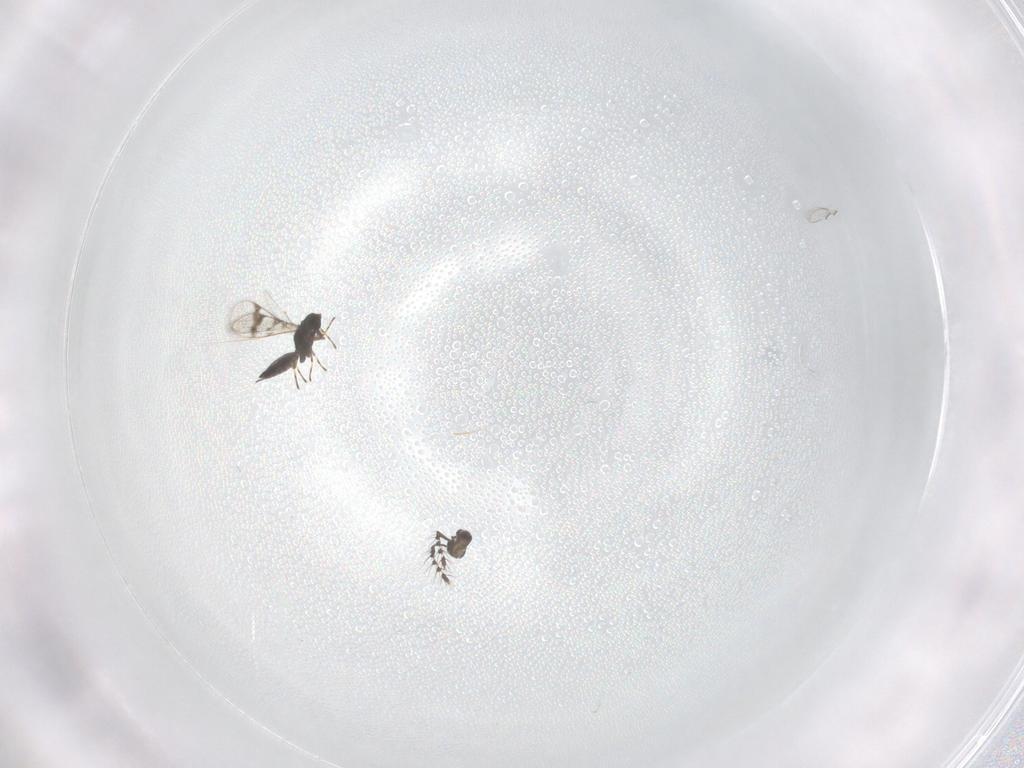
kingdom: Animalia
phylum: Arthropoda
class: Insecta
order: Hymenoptera
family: Eulophidae
